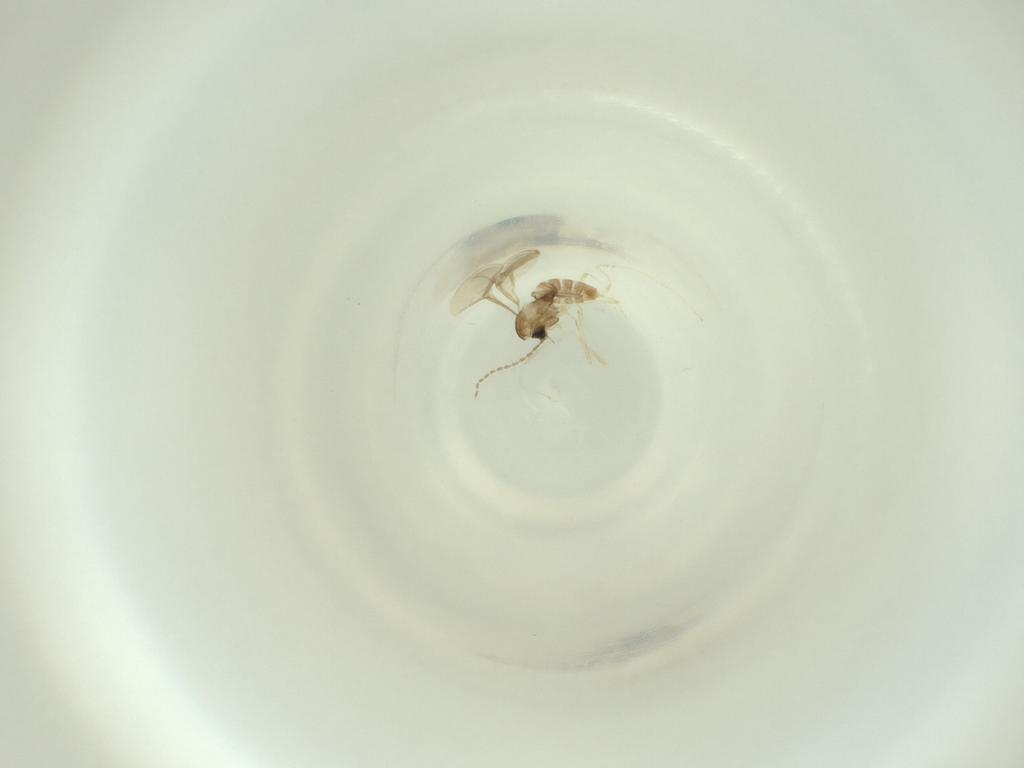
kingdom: Animalia
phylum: Arthropoda
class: Insecta
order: Diptera
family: Cecidomyiidae
